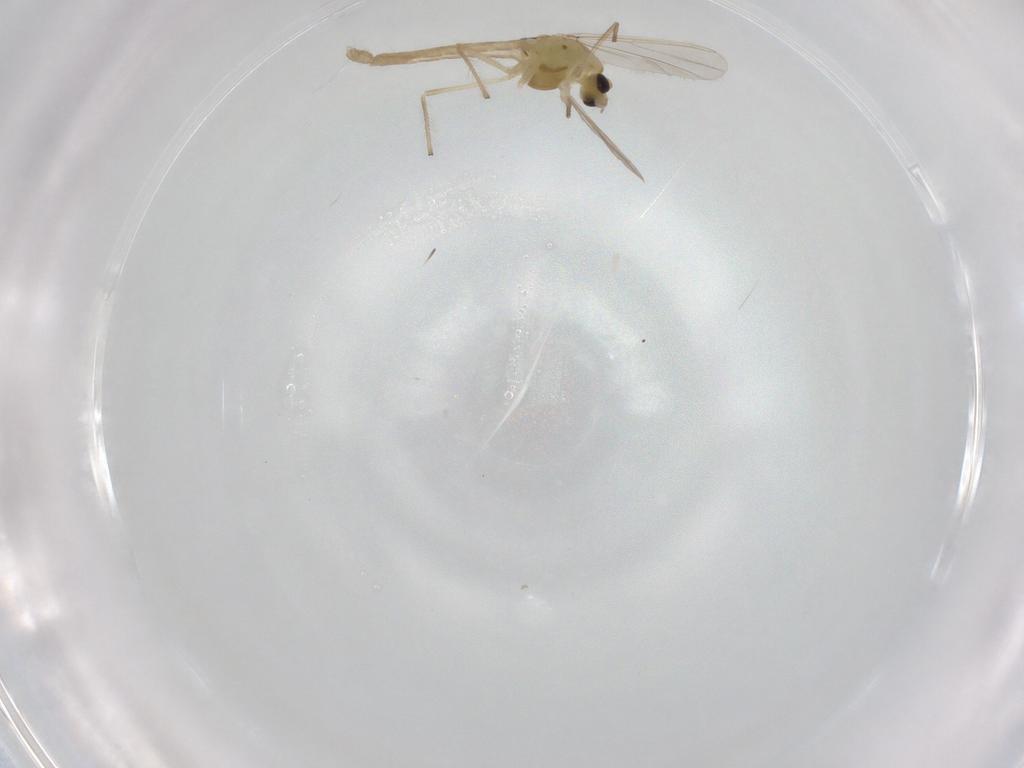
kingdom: Animalia
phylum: Arthropoda
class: Insecta
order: Diptera
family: Chironomidae
